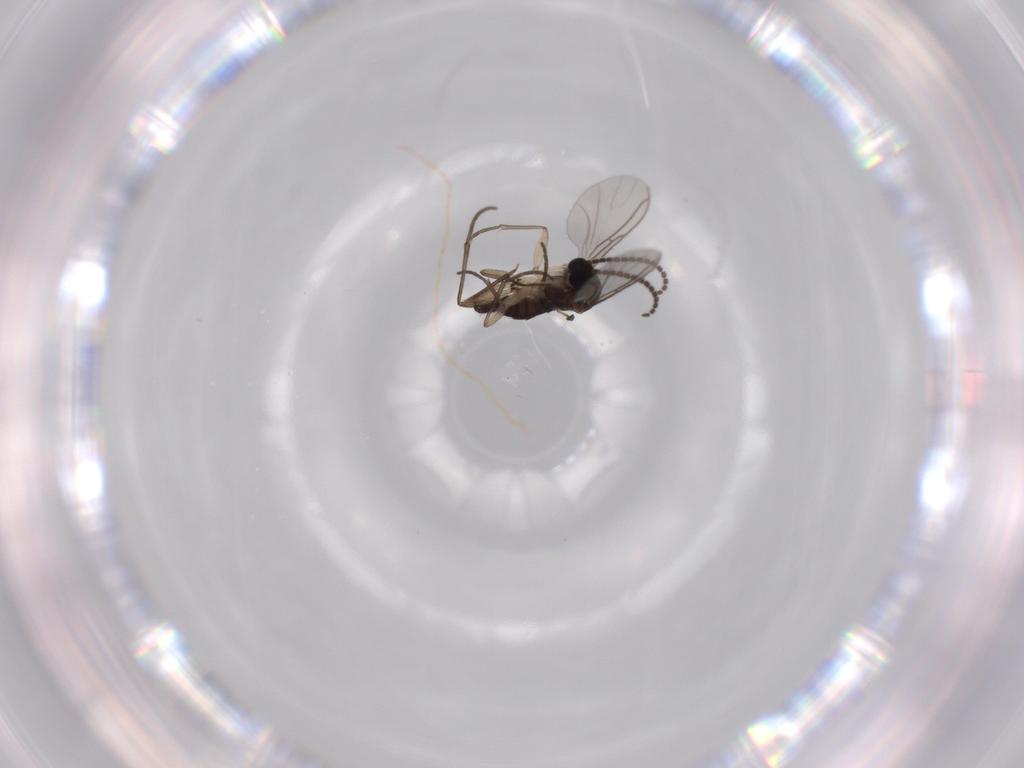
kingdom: Animalia
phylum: Arthropoda
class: Insecta
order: Diptera
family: Sciaridae
